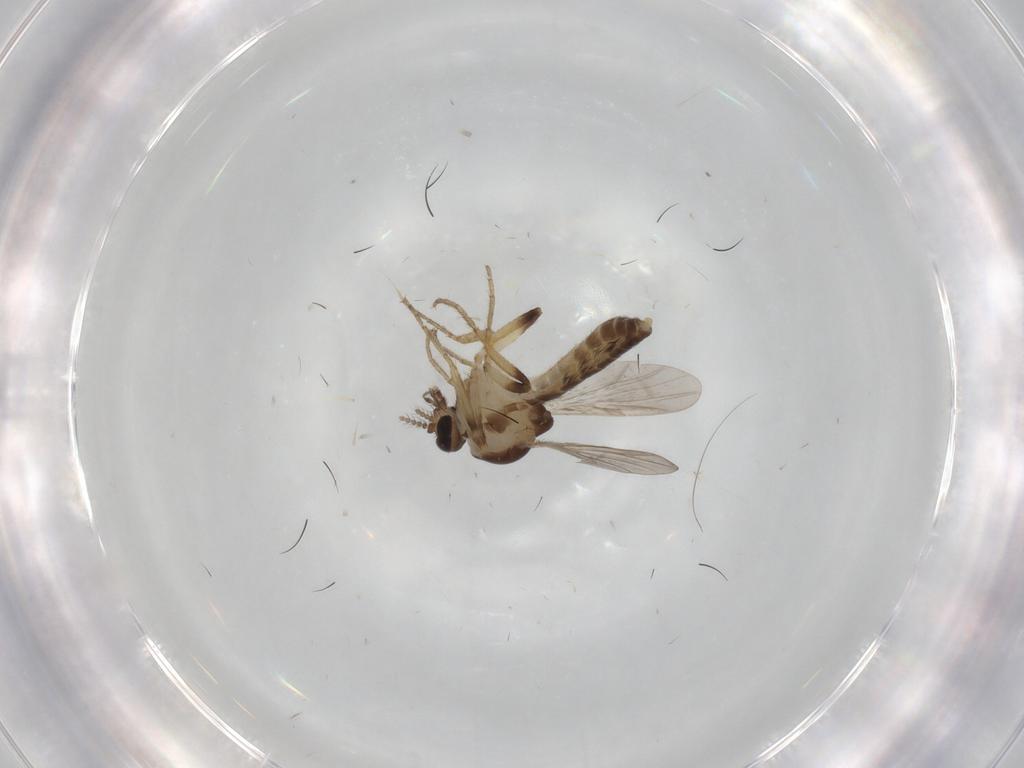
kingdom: Animalia
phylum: Arthropoda
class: Insecta
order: Diptera
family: Ceratopogonidae
